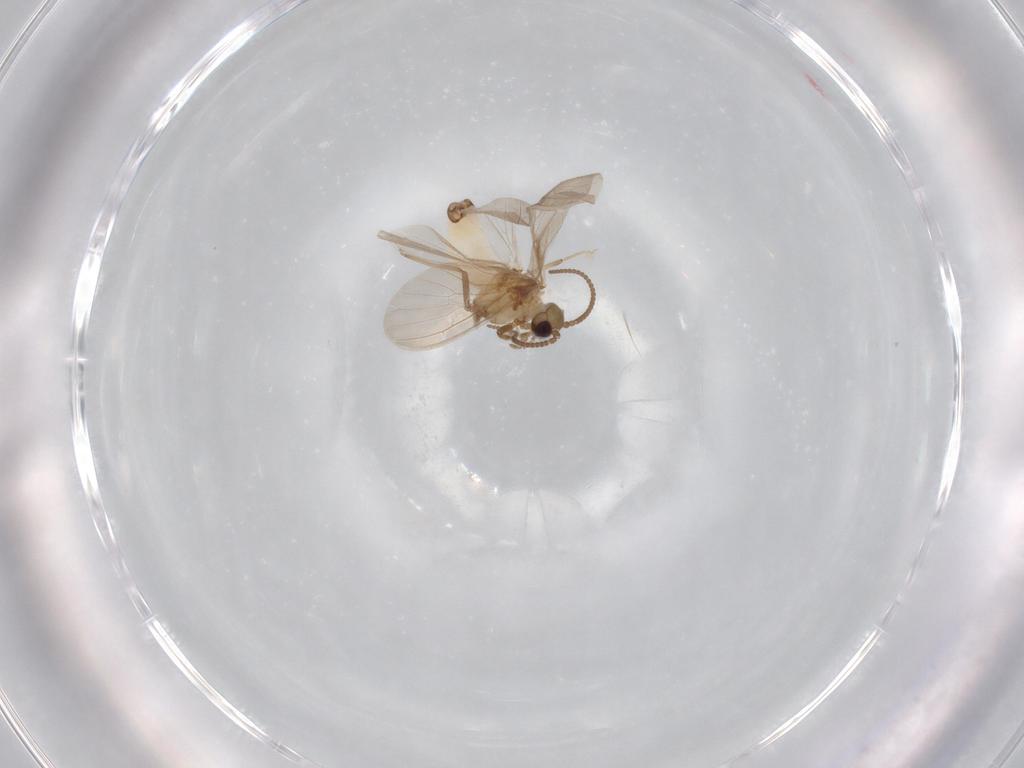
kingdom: Animalia
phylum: Arthropoda
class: Insecta
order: Neuroptera
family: Coniopterygidae
